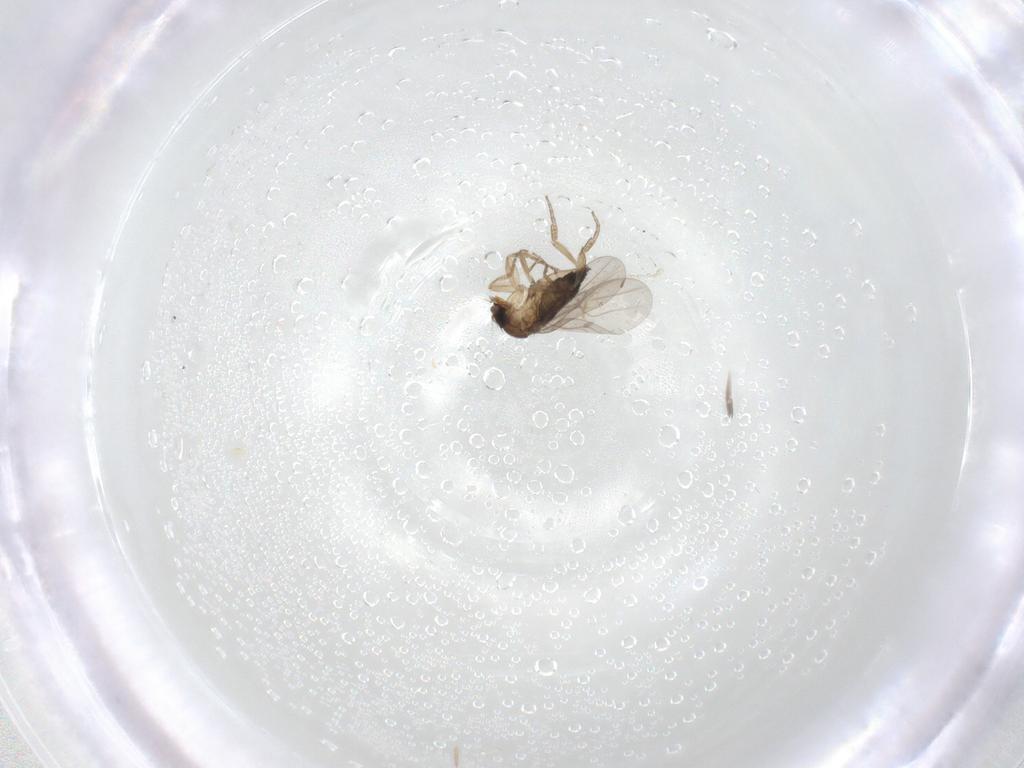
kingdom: Animalia
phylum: Arthropoda
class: Insecta
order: Diptera
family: Phoridae
